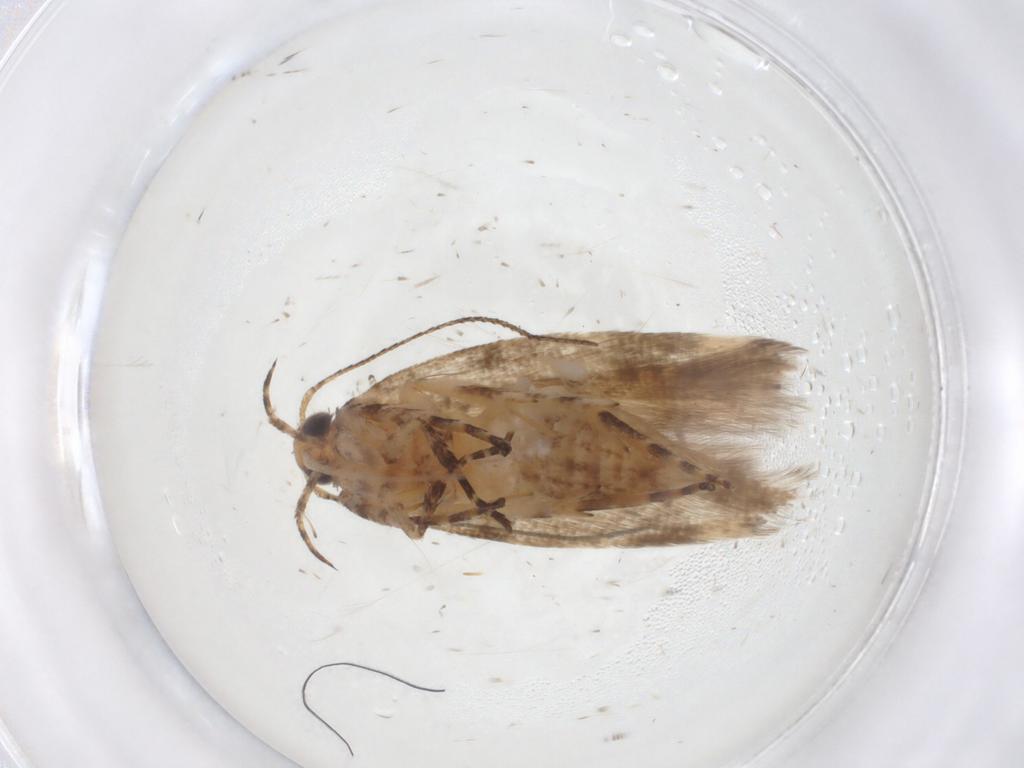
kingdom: Animalia
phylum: Arthropoda
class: Insecta
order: Lepidoptera
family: Gelechiidae
